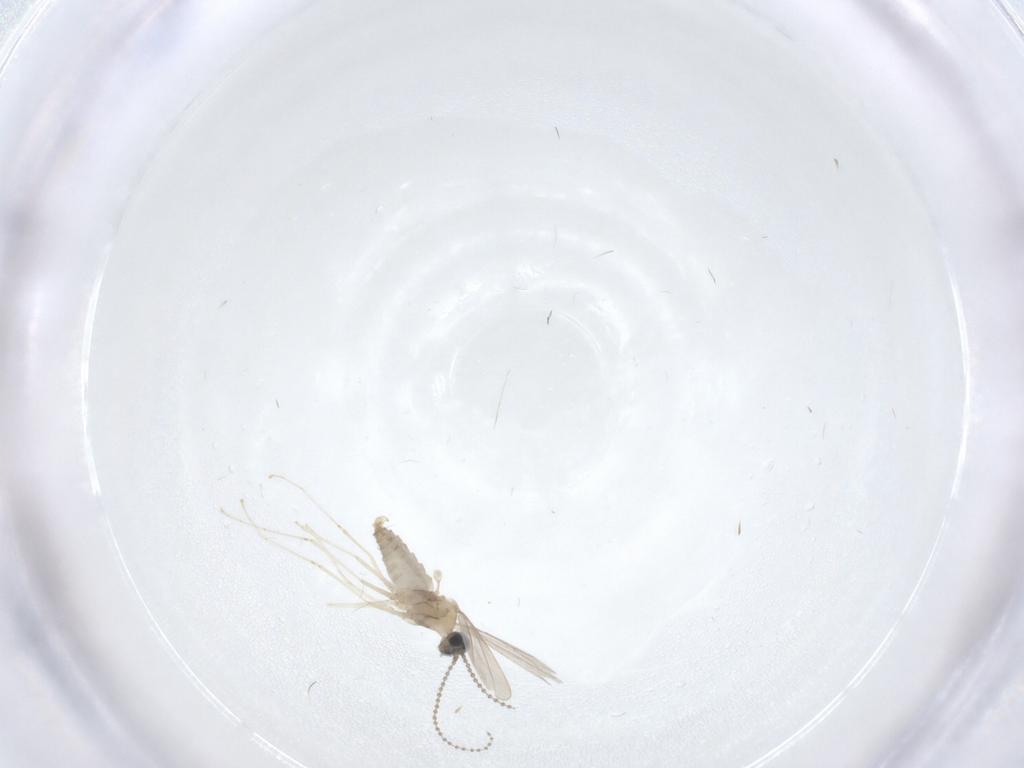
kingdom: Animalia
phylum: Arthropoda
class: Insecta
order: Diptera
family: Cecidomyiidae
